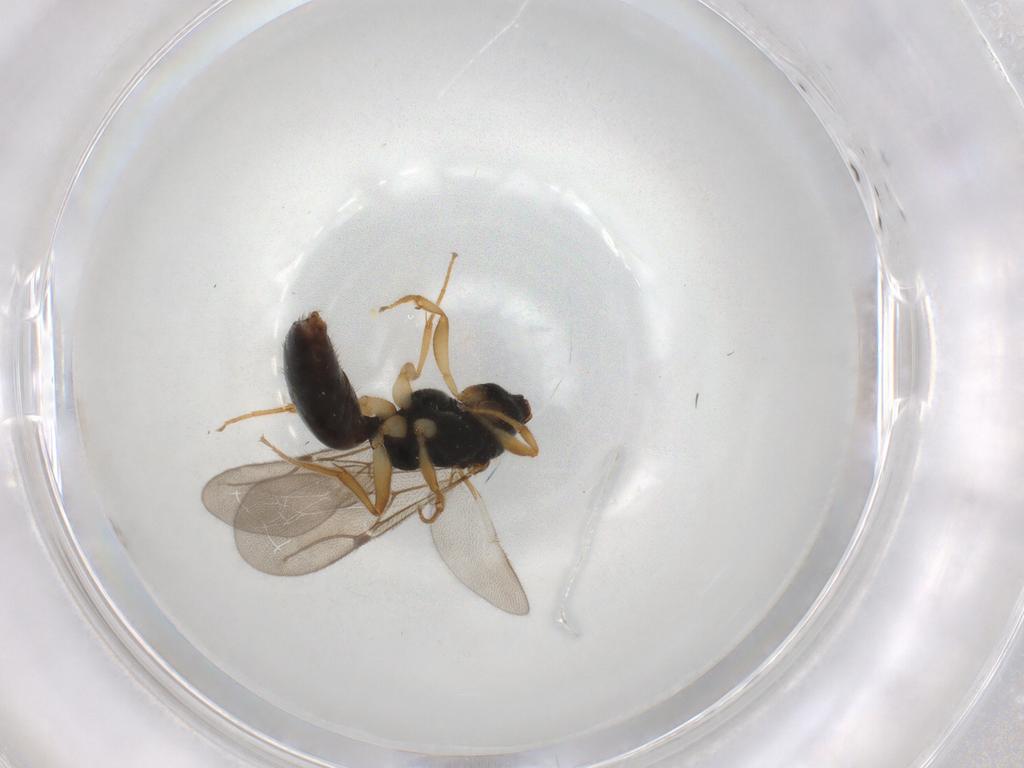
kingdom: Animalia
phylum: Arthropoda
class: Insecta
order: Hymenoptera
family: Bethylidae
